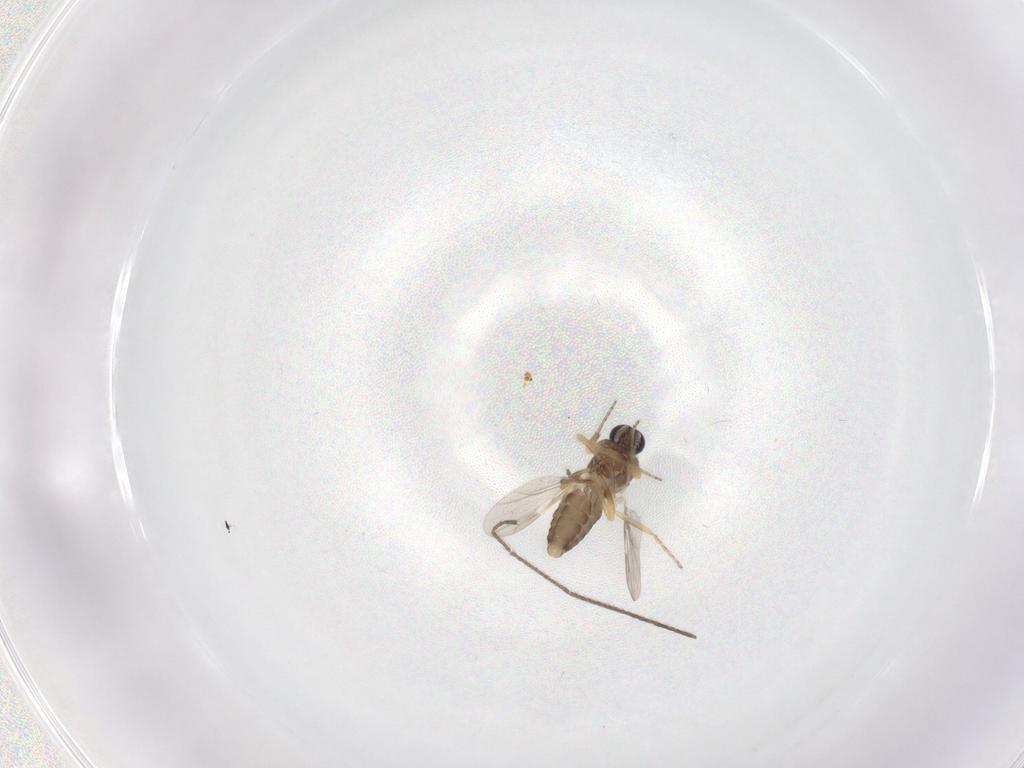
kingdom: Animalia
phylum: Arthropoda
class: Insecta
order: Diptera
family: Ceratopogonidae
